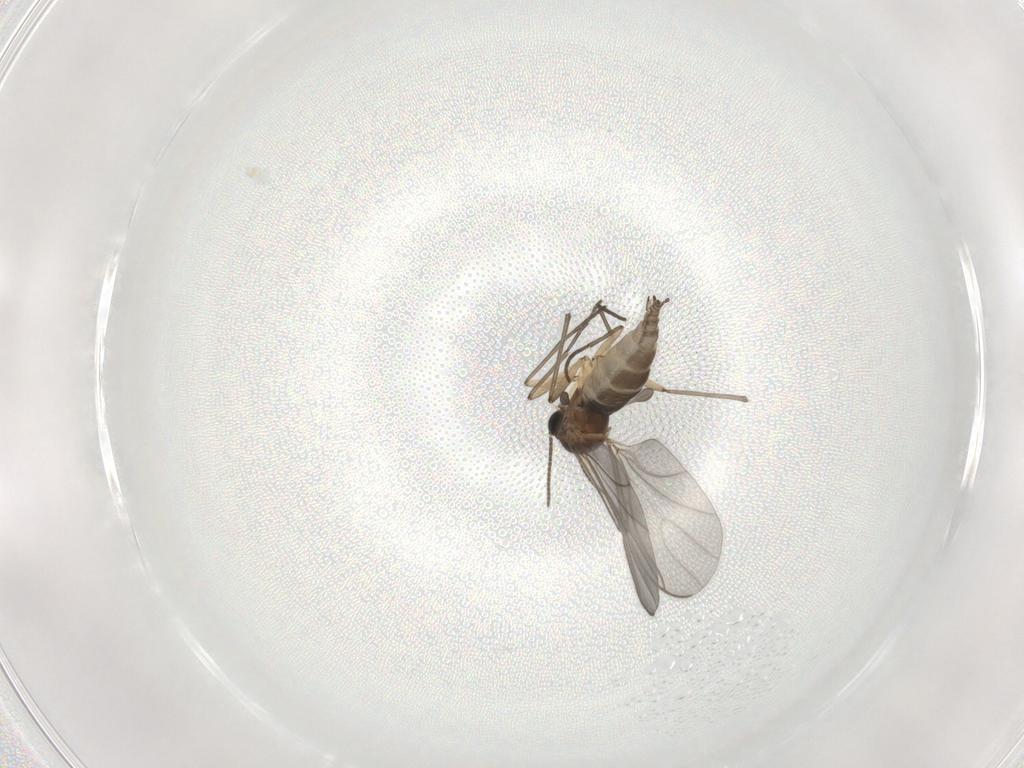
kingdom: Animalia
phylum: Arthropoda
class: Insecta
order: Diptera
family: Sciaridae
